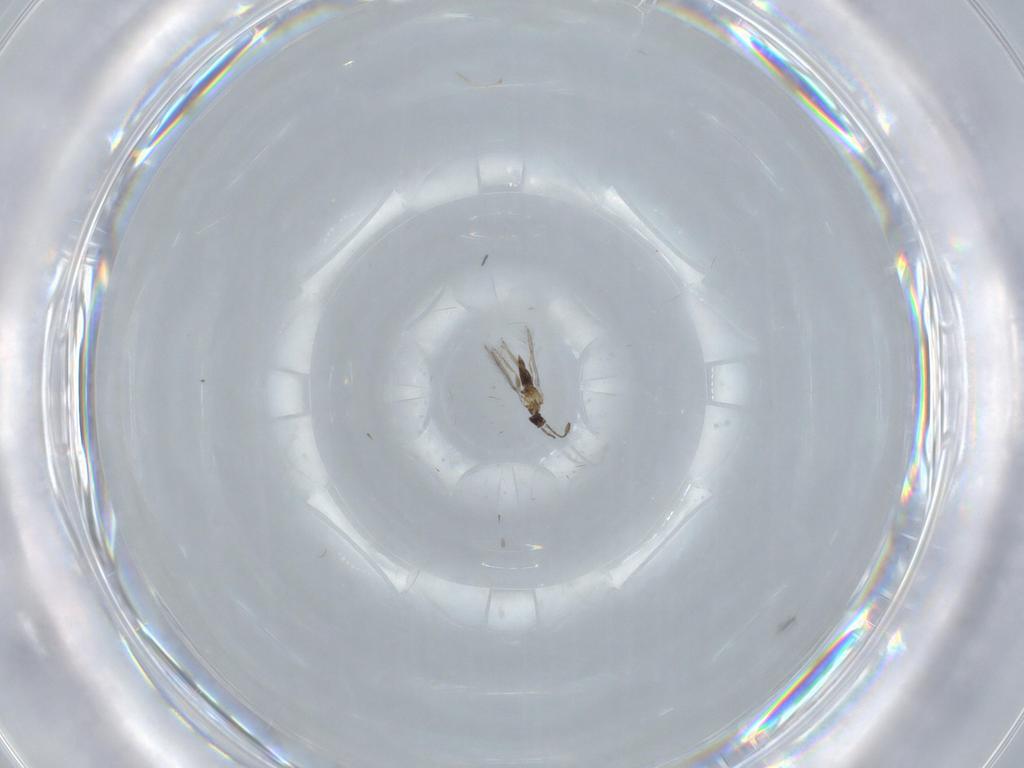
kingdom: Animalia
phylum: Arthropoda
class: Insecta
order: Hymenoptera
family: Mymaridae
